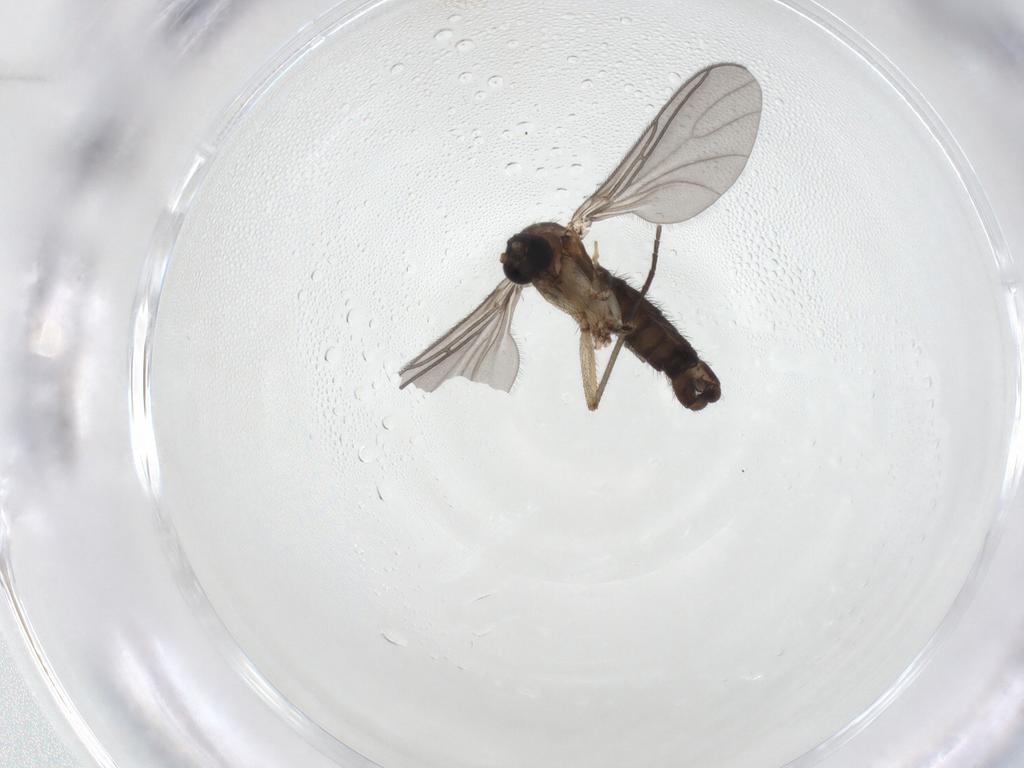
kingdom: Animalia
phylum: Arthropoda
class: Insecta
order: Diptera
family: Sciaridae
